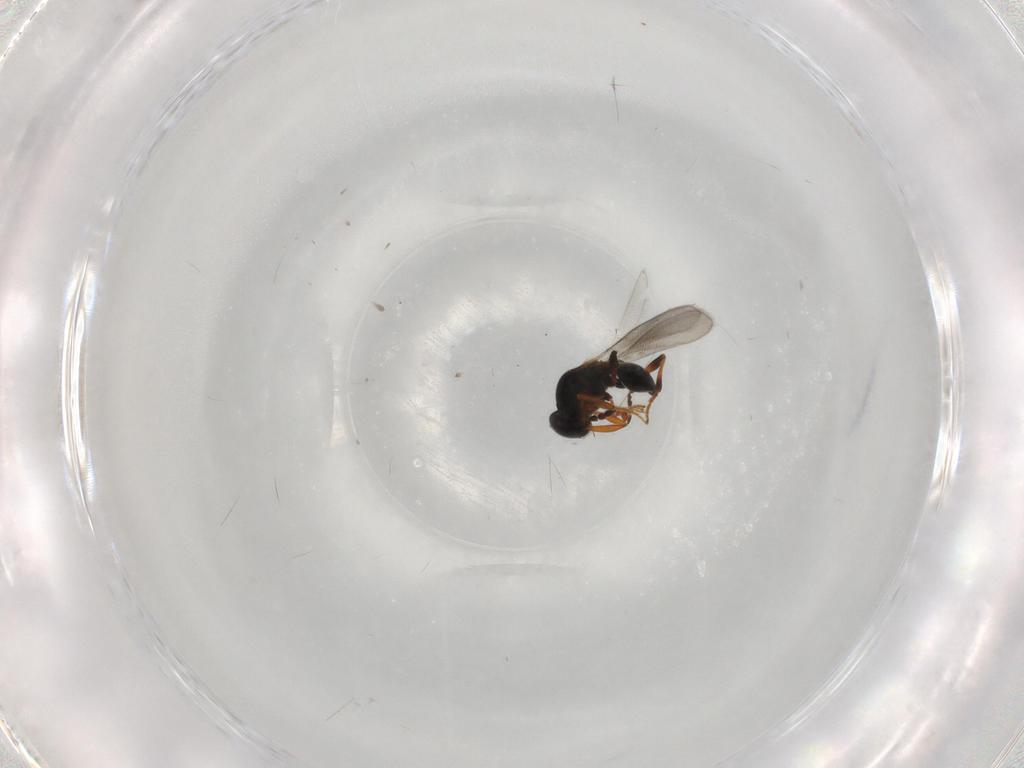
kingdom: Animalia
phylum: Arthropoda
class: Insecta
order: Hymenoptera
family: Platygastridae
